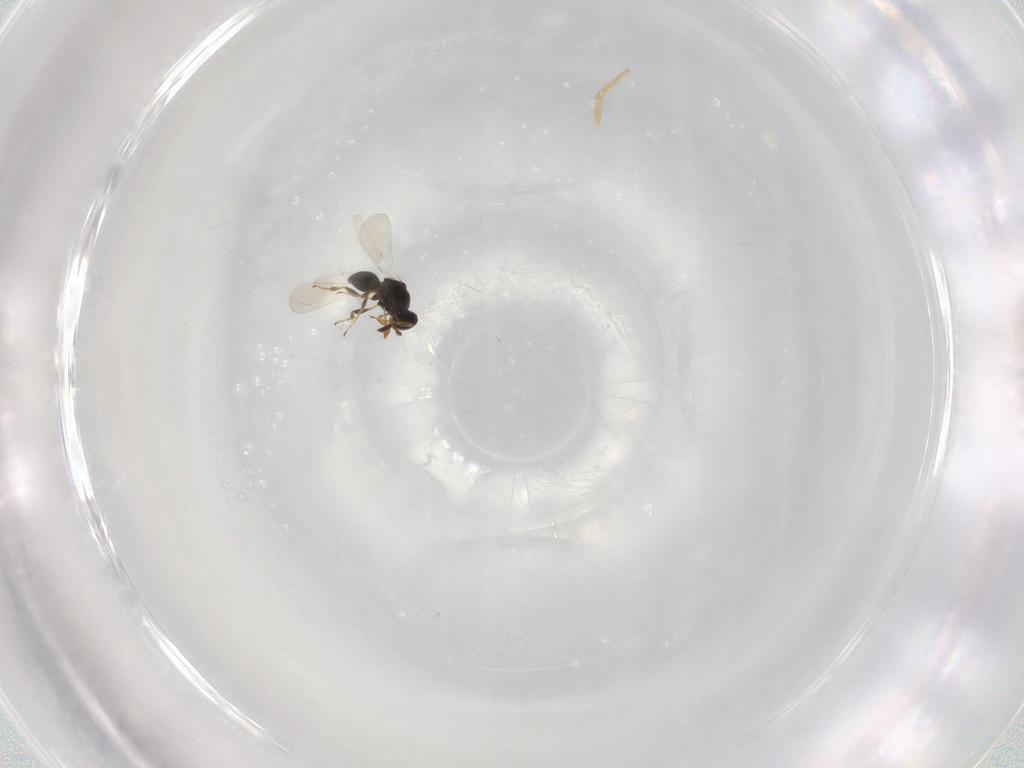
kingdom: Animalia
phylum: Arthropoda
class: Insecta
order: Hymenoptera
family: Platygastridae
